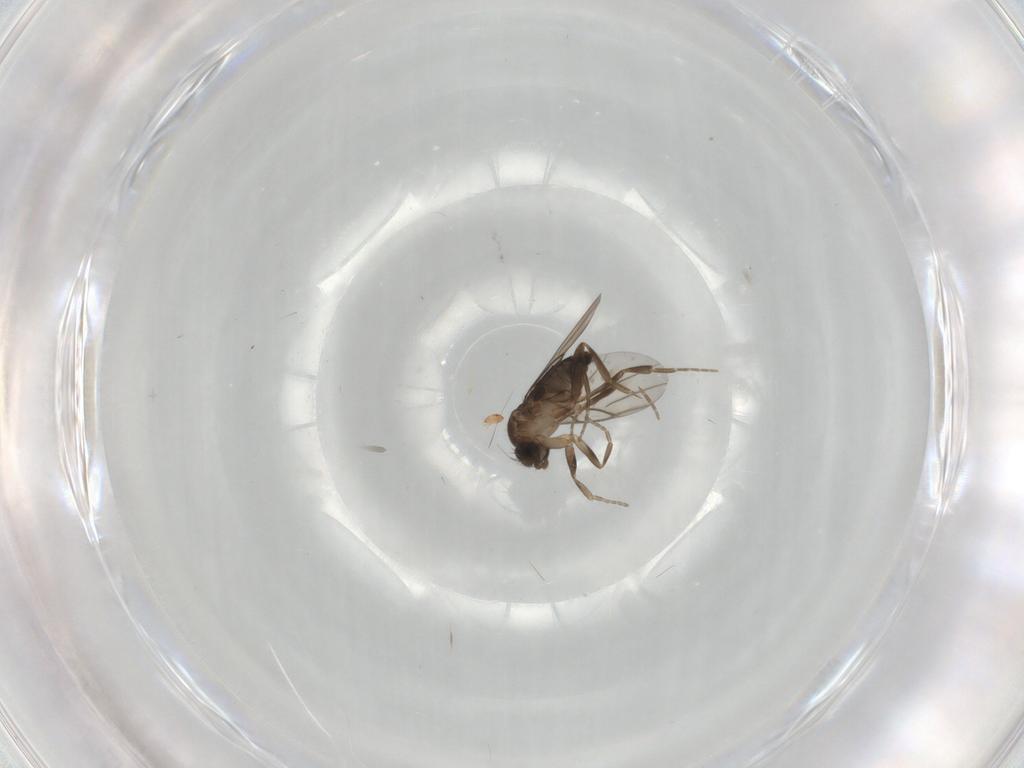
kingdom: Animalia
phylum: Arthropoda
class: Insecta
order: Diptera
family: Phoridae
